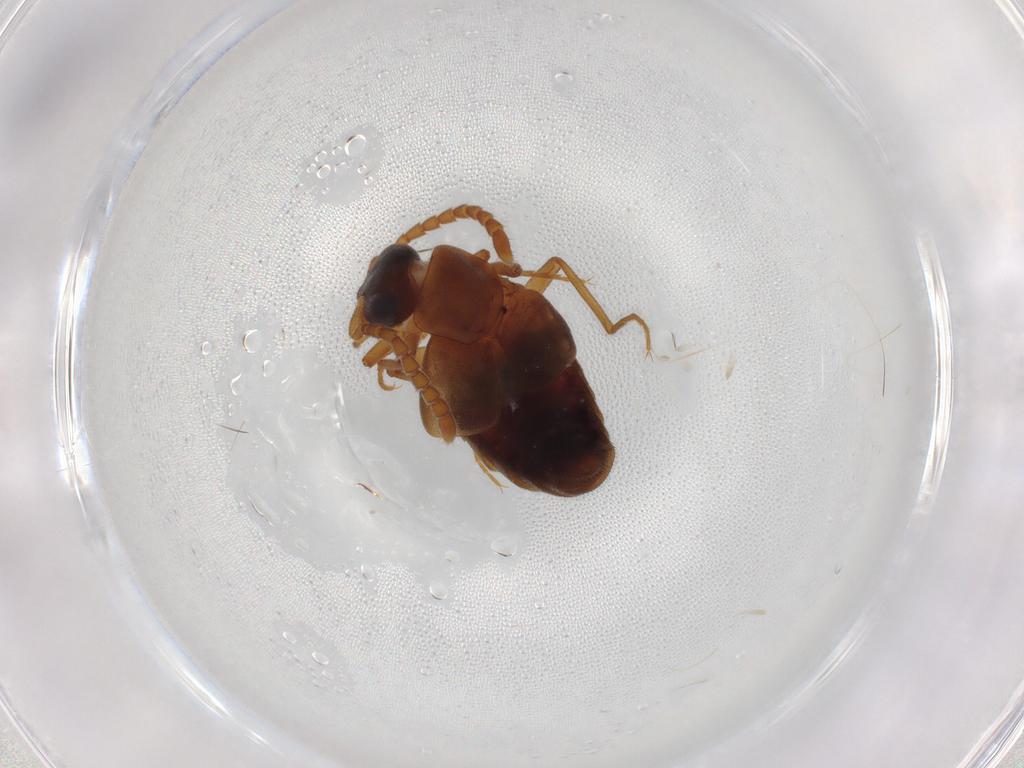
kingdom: Animalia
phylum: Arthropoda
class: Insecta
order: Coleoptera
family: Staphylinidae
